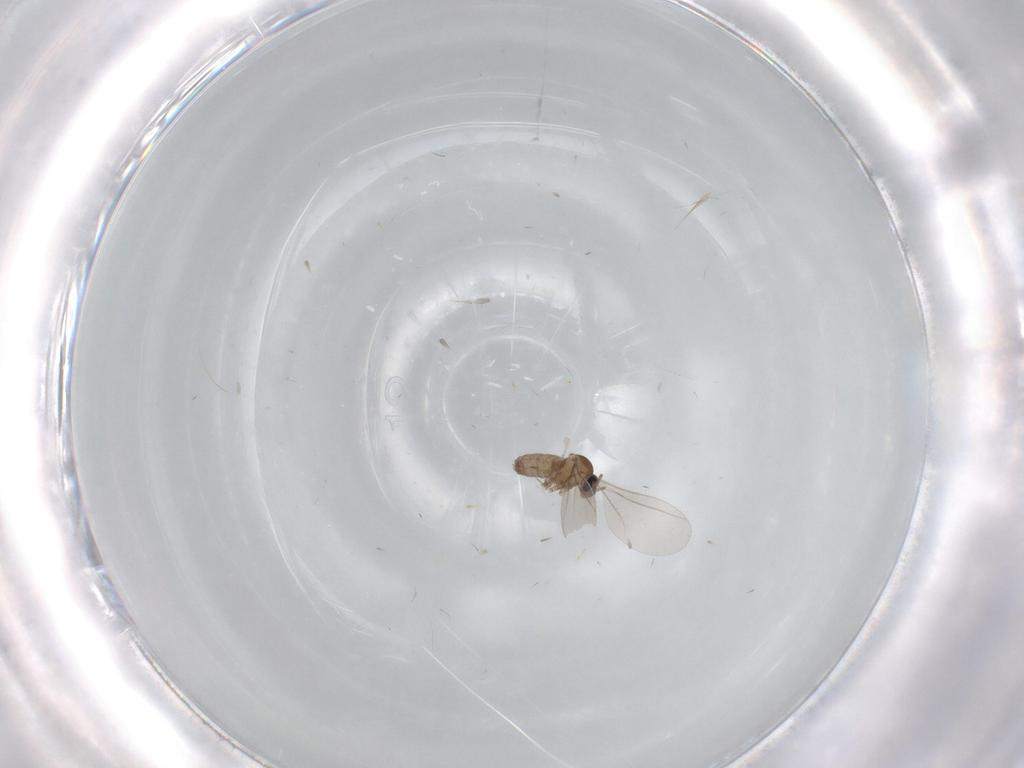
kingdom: Animalia
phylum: Arthropoda
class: Insecta
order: Diptera
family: Cecidomyiidae
